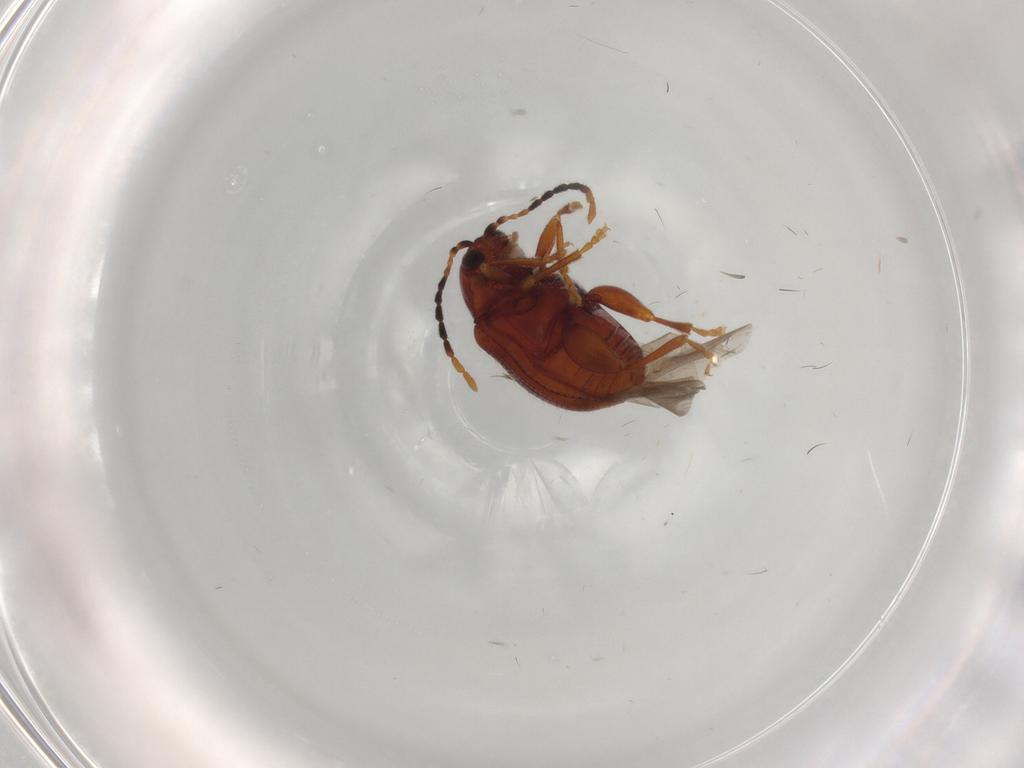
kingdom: Animalia
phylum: Arthropoda
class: Insecta
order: Coleoptera
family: Chrysomelidae
